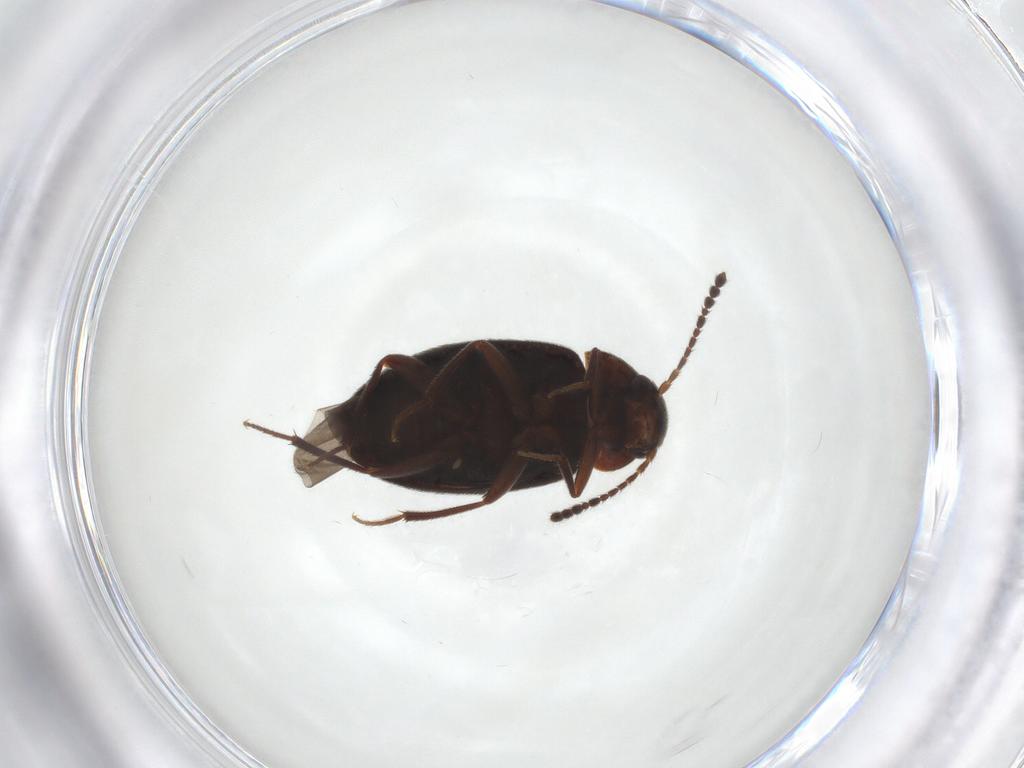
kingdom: Animalia
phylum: Arthropoda
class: Insecta
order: Coleoptera
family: Leiodidae
